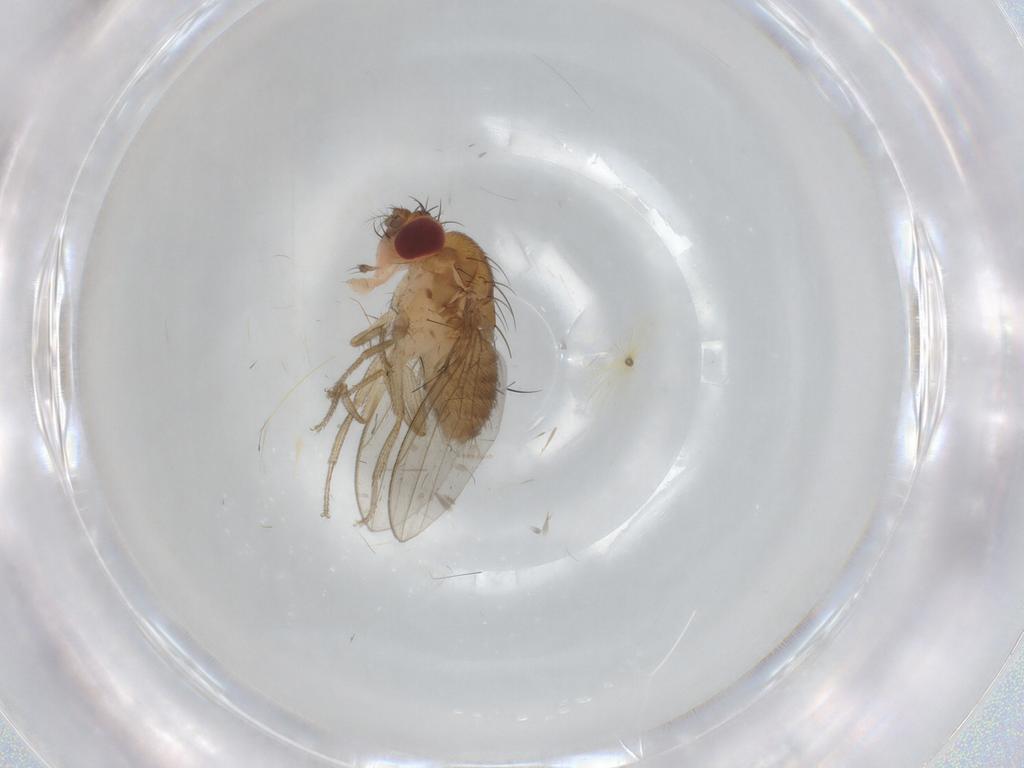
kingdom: Animalia
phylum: Arthropoda
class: Insecta
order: Diptera
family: Drosophilidae
